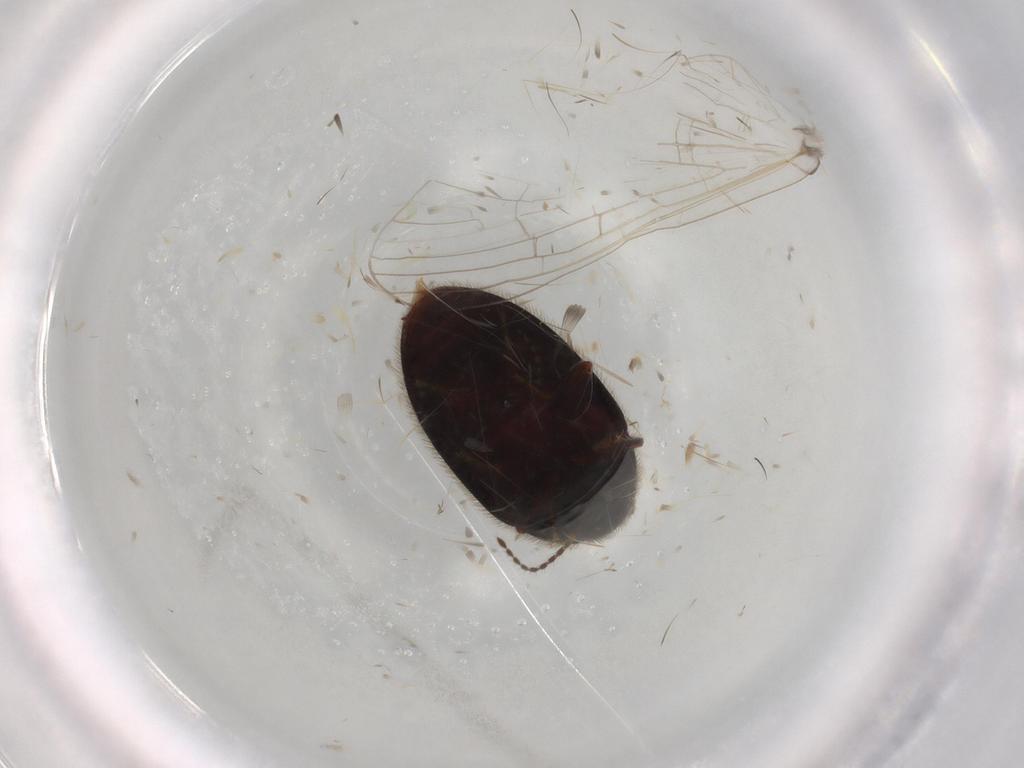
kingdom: Animalia
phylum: Arthropoda
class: Insecta
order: Coleoptera
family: Limnichidae
